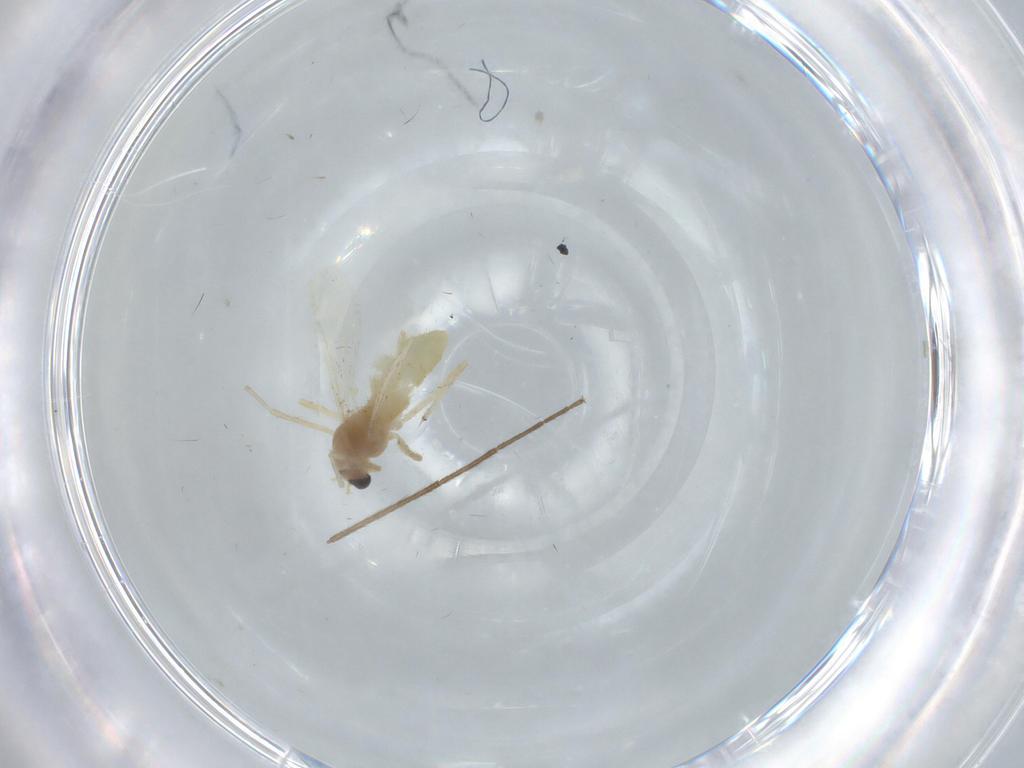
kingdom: Animalia
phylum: Arthropoda
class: Insecta
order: Diptera
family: Chironomidae
